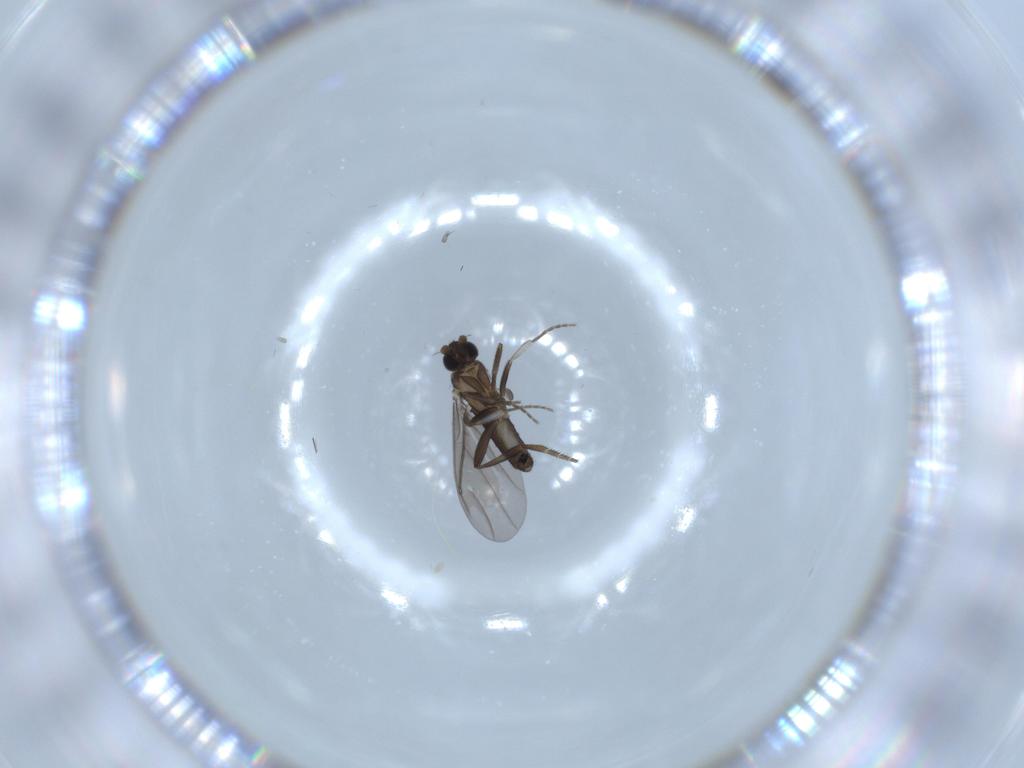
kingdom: Animalia
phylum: Arthropoda
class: Insecta
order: Diptera
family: Phoridae
